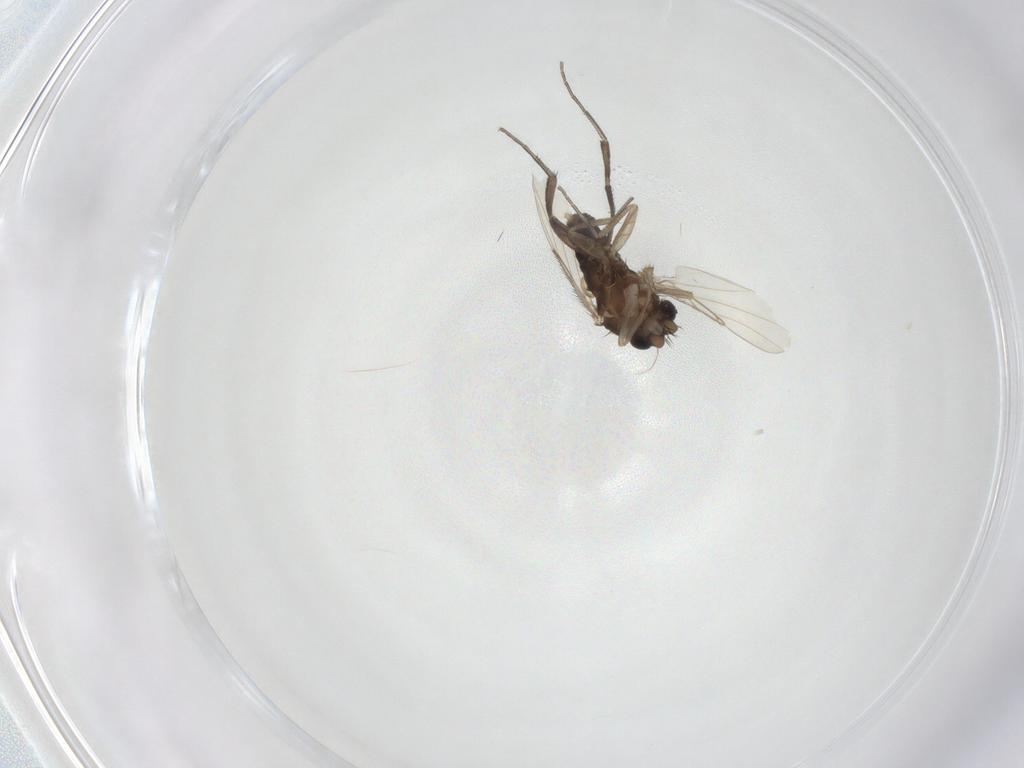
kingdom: Animalia
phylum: Arthropoda
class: Insecta
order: Diptera
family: Phoridae
